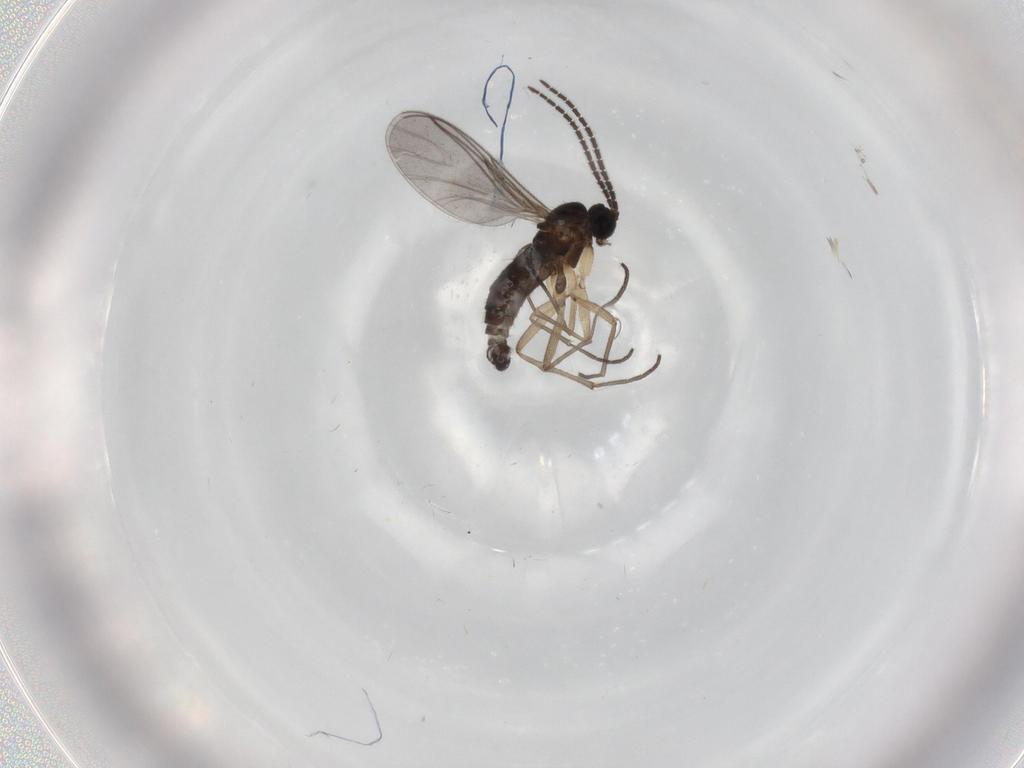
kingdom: Animalia
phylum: Arthropoda
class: Insecta
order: Diptera
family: Sciaridae
